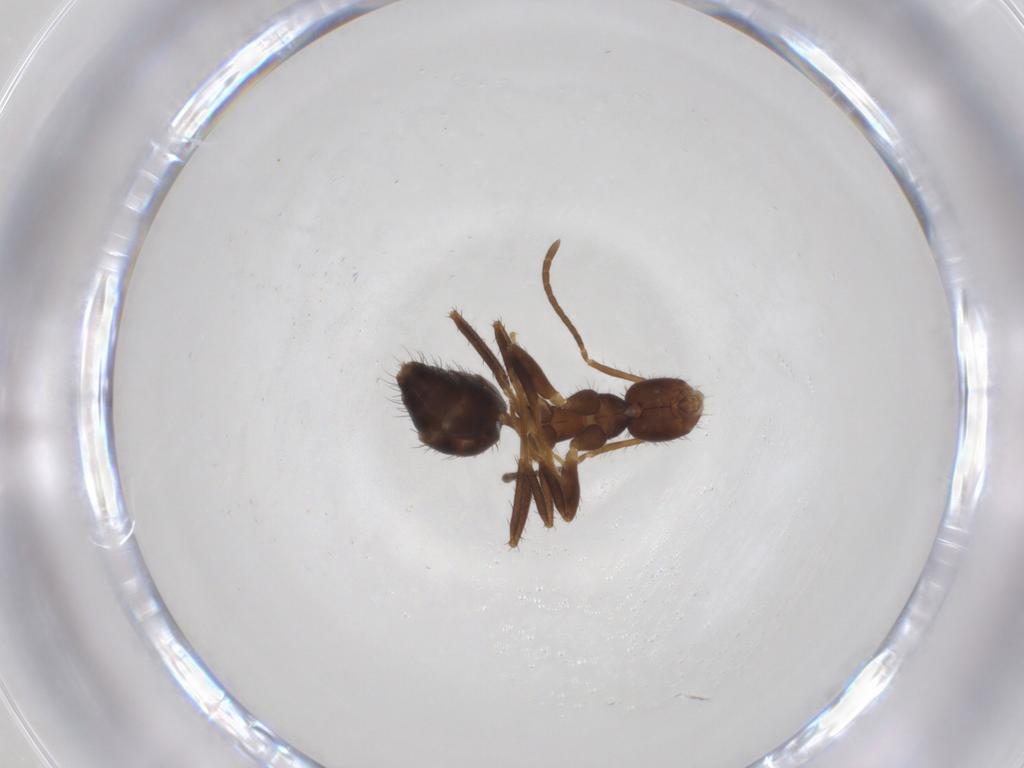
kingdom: Animalia
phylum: Arthropoda
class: Insecta
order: Hymenoptera
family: Formicidae
